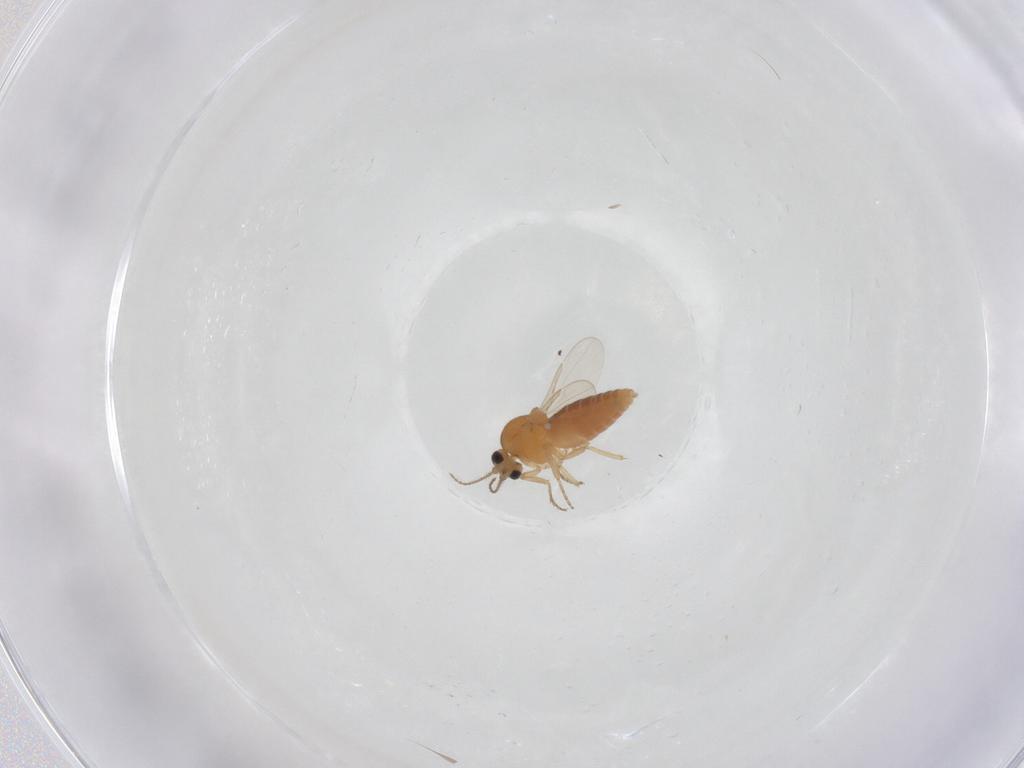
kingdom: Animalia
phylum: Arthropoda
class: Insecta
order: Diptera
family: Ceratopogonidae
